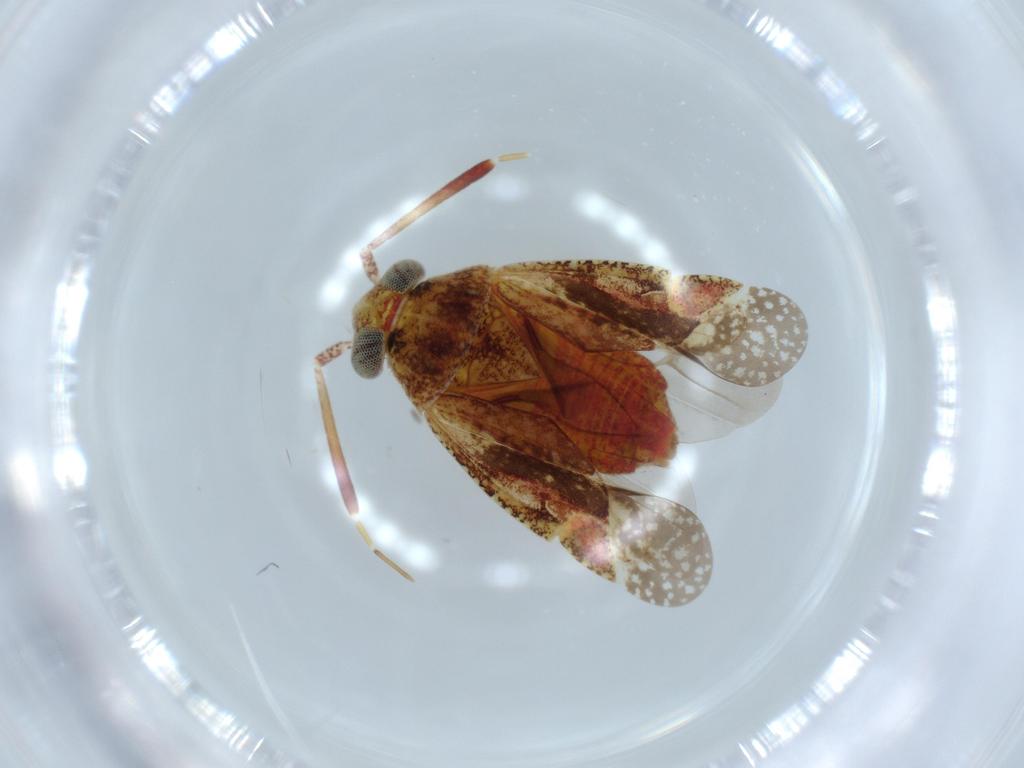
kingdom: Animalia
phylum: Arthropoda
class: Insecta
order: Hemiptera
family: Miridae
